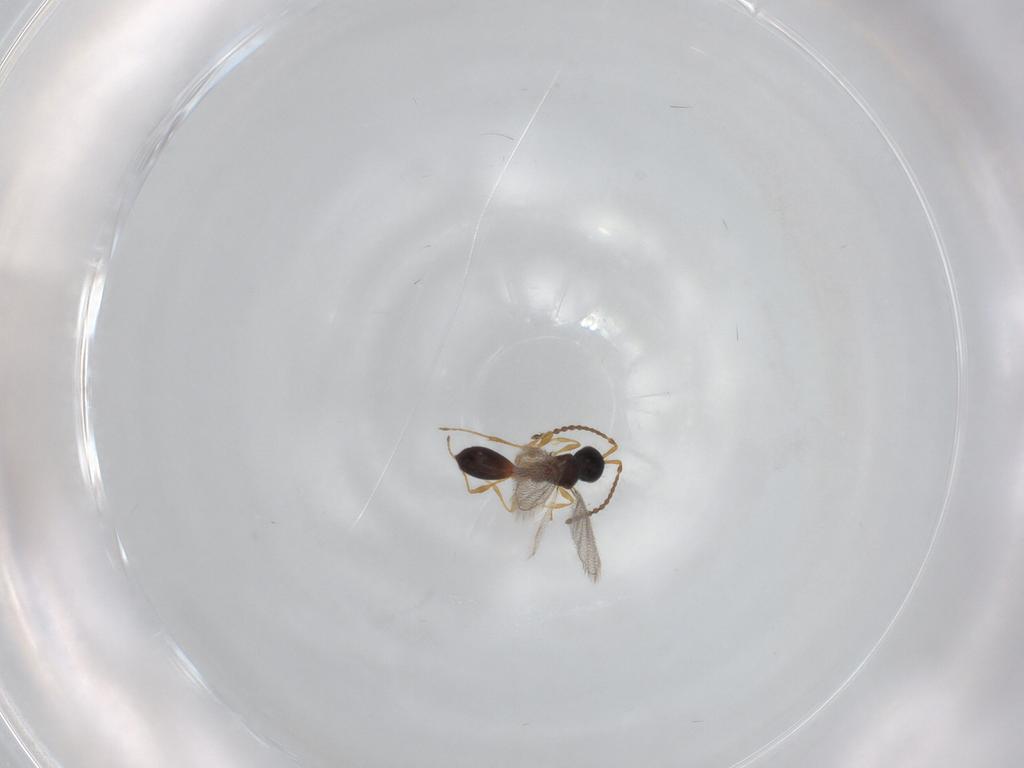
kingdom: Animalia
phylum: Arthropoda
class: Insecta
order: Hymenoptera
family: Diapriidae
